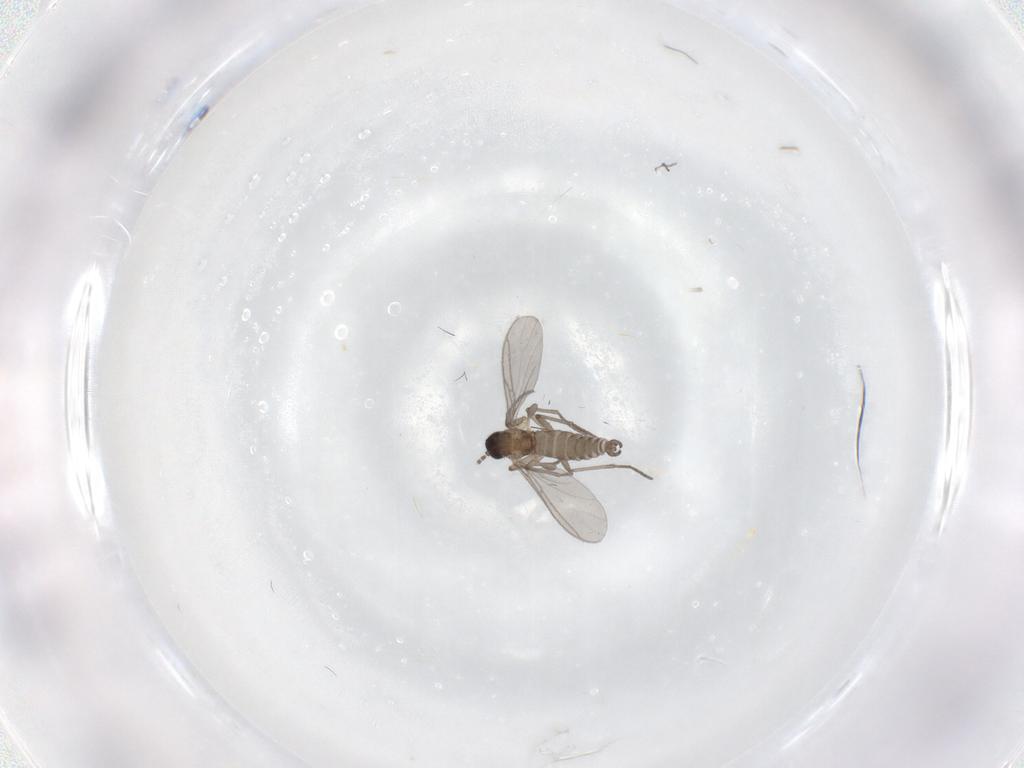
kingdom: Animalia
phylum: Arthropoda
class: Insecta
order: Diptera
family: Sciaridae
